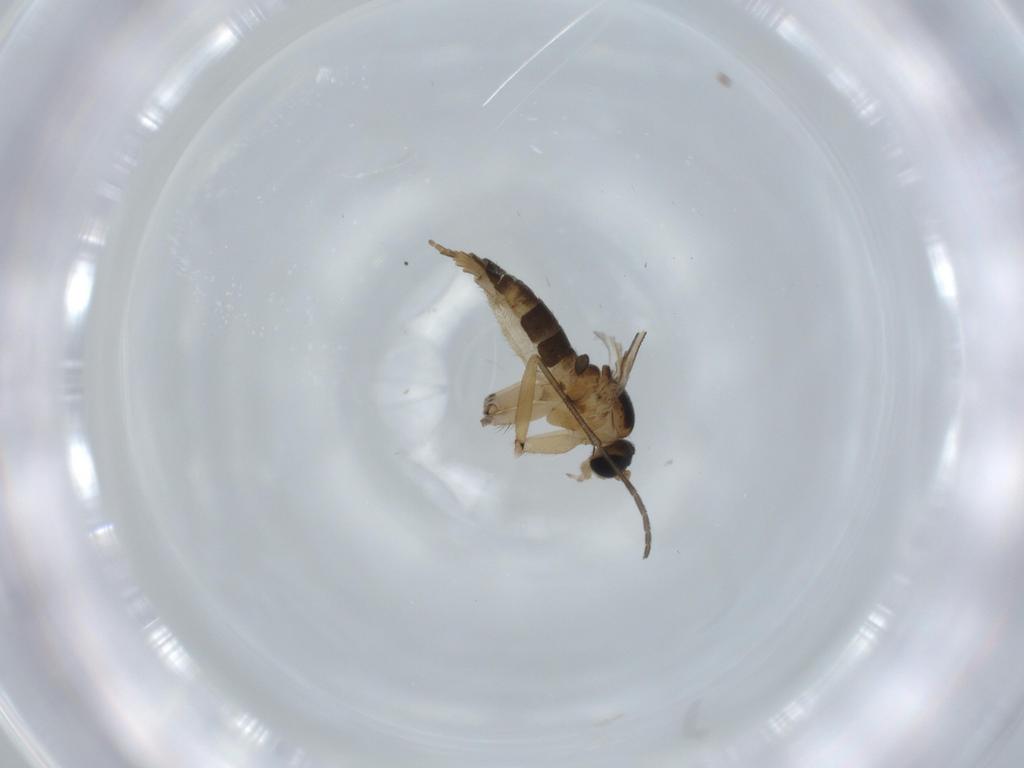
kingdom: Animalia
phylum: Arthropoda
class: Insecta
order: Diptera
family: Sciaridae
